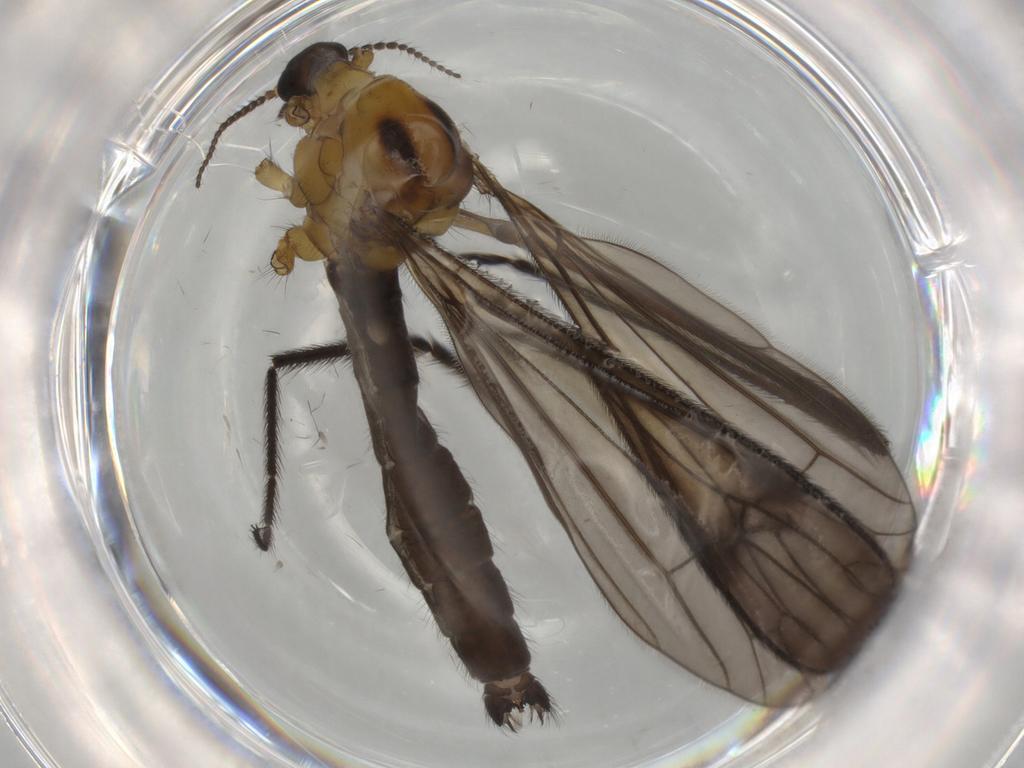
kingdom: Animalia
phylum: Arthropoda
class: Insecta
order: Diptera
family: Limoniidae
